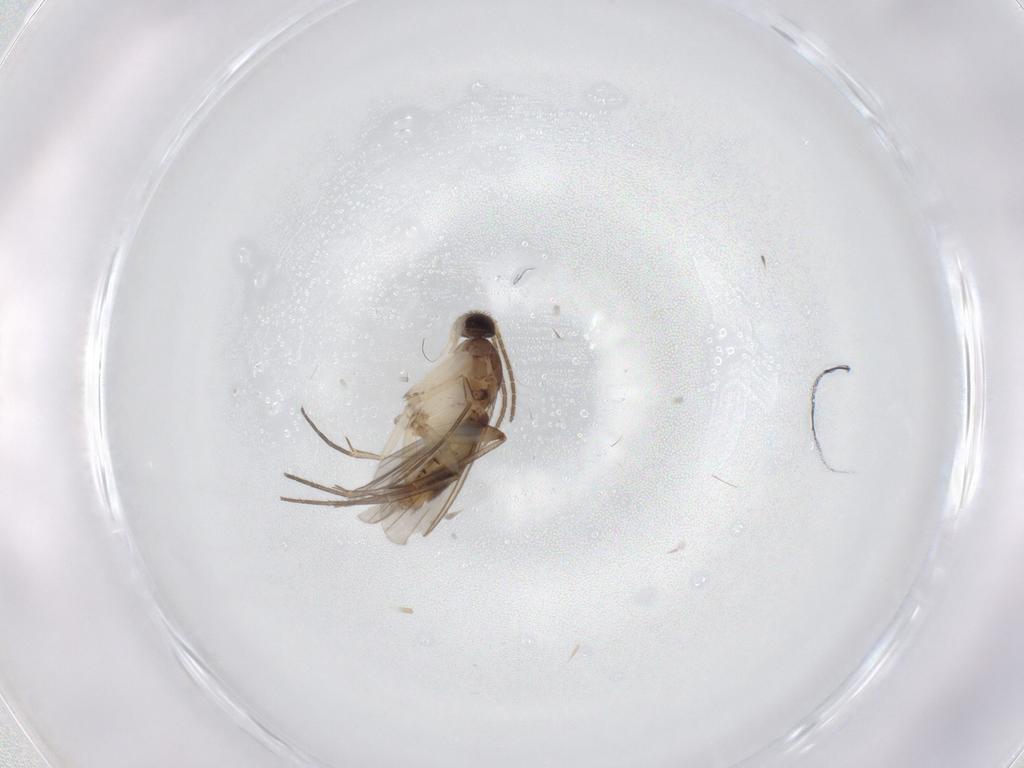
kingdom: Animalia
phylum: Arthropoda
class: Insecta
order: Diptera
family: Mycetophilidae
